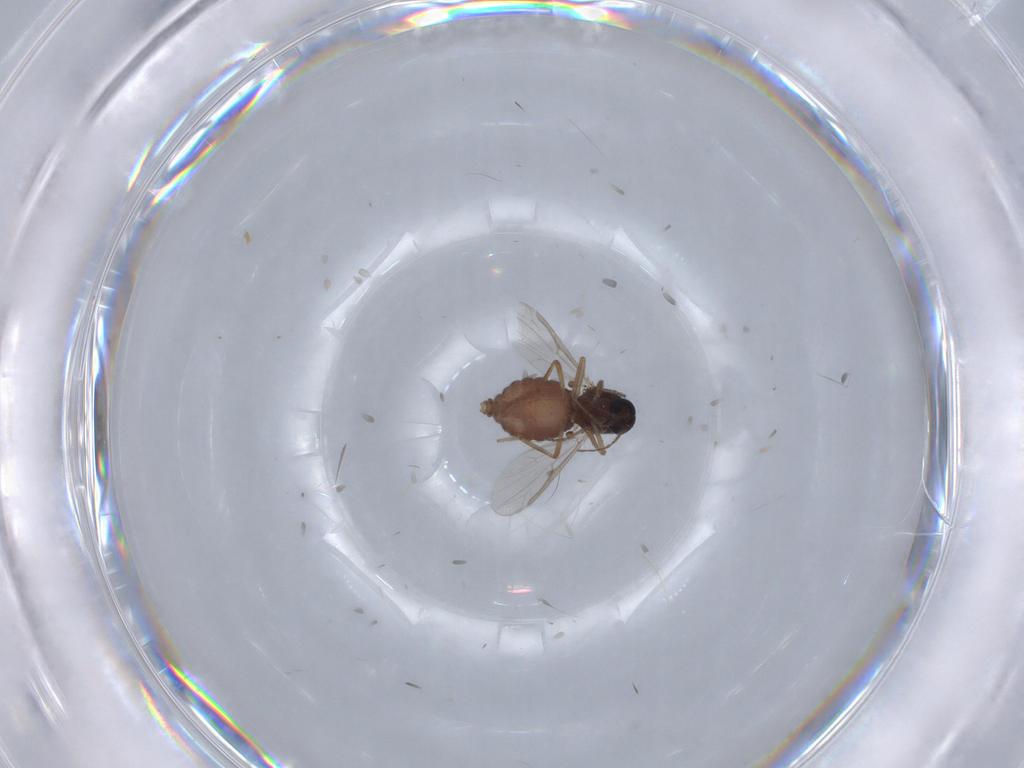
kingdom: Animalia
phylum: Arthropoda
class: Insecta
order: Diptera
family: Ceratopogonidae
